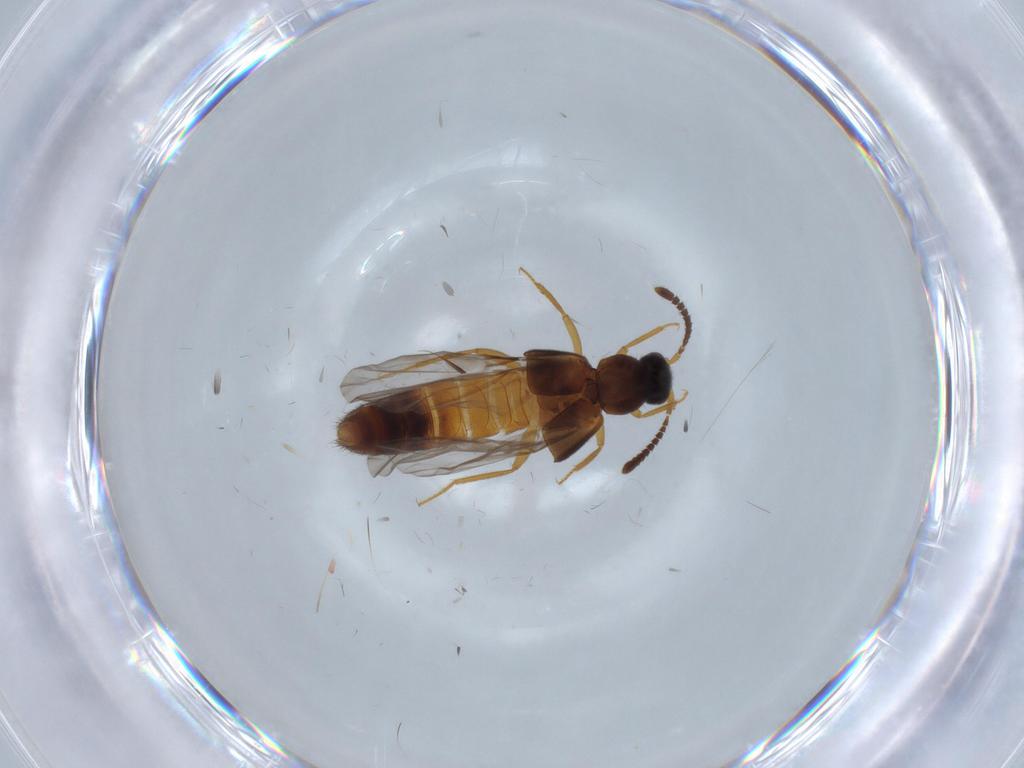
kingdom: Animalia
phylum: Arthropoda
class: Insecta
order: Coleoptera
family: Staphylinidae
